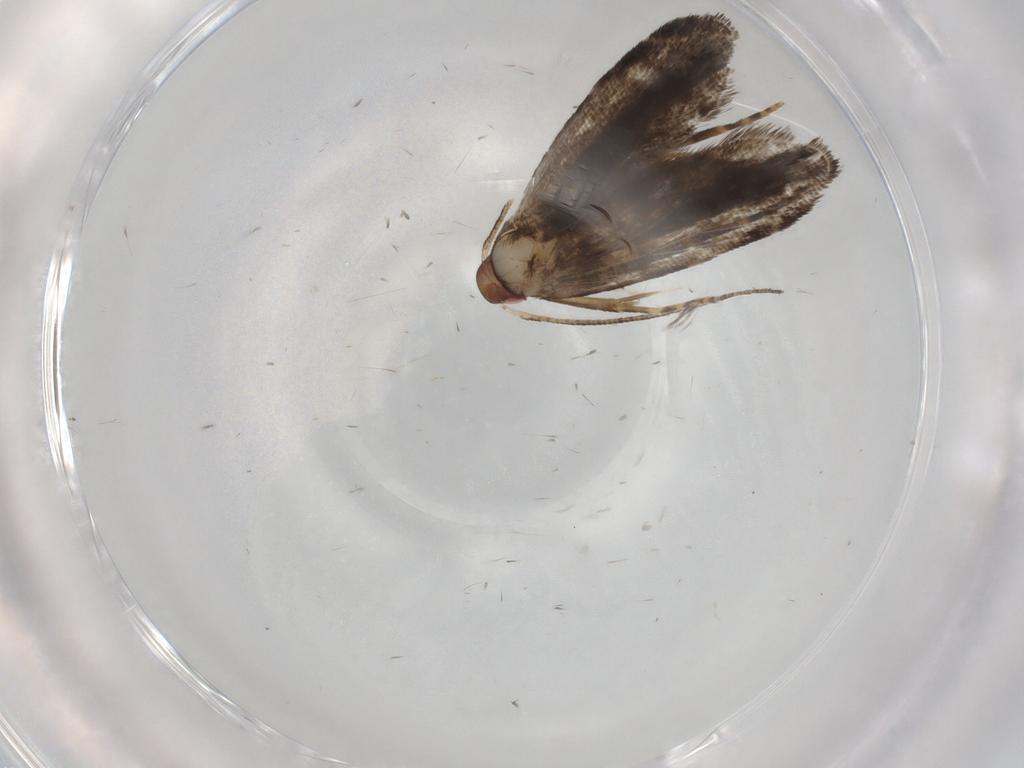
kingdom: Animalia
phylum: Arthropoda
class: Insecta
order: Lepidoptera
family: Gelechiidae
